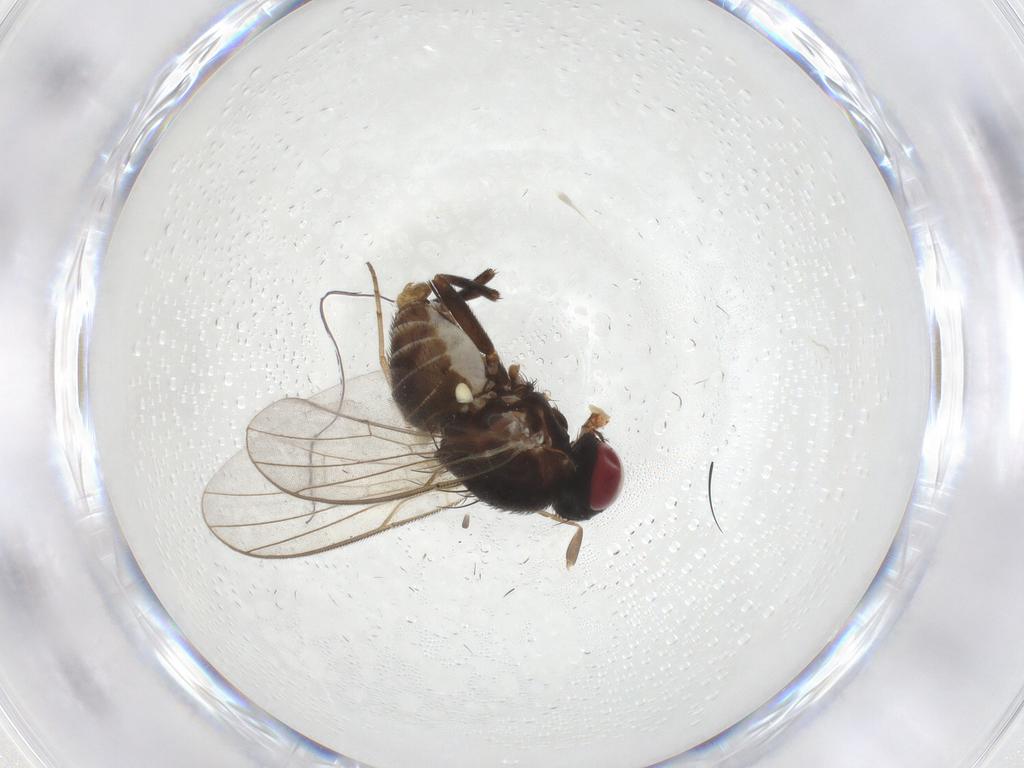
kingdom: Animalia
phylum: Arthropoda
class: Insecta
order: Diptera
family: Agromyzidae
